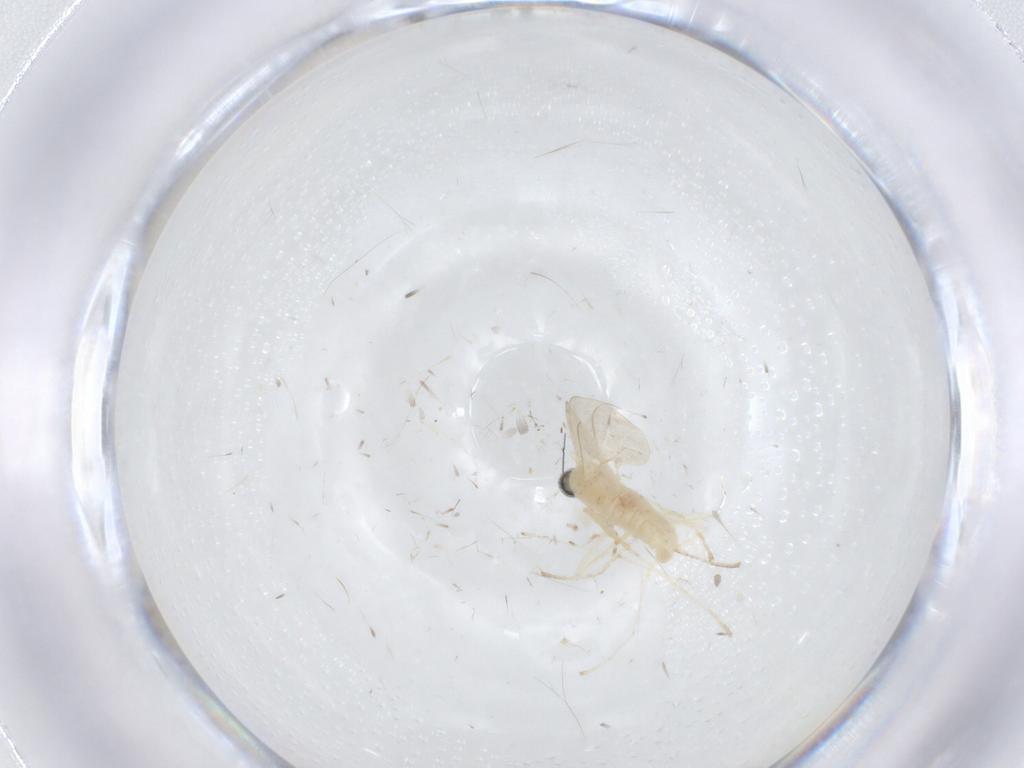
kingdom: Animalia
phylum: Arthropoda
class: Insecta
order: Diptera
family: Cecidomyiidae
